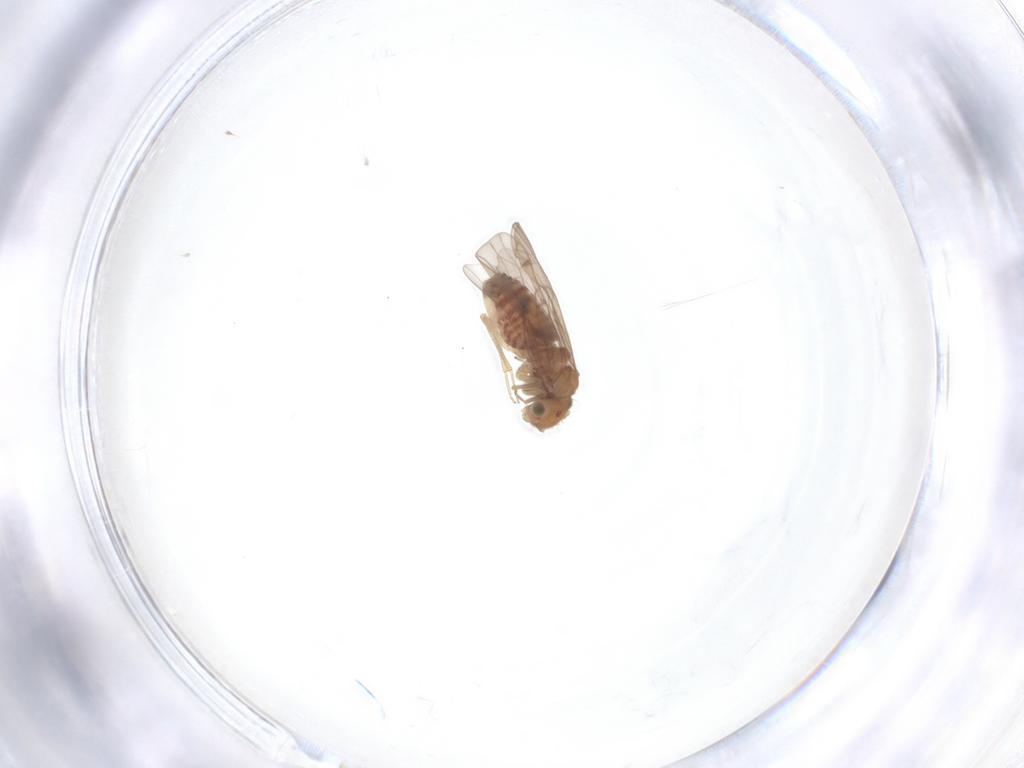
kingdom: Animalia
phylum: Arthropoda
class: Insecta
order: Psocodea
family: Ectopsocidae
